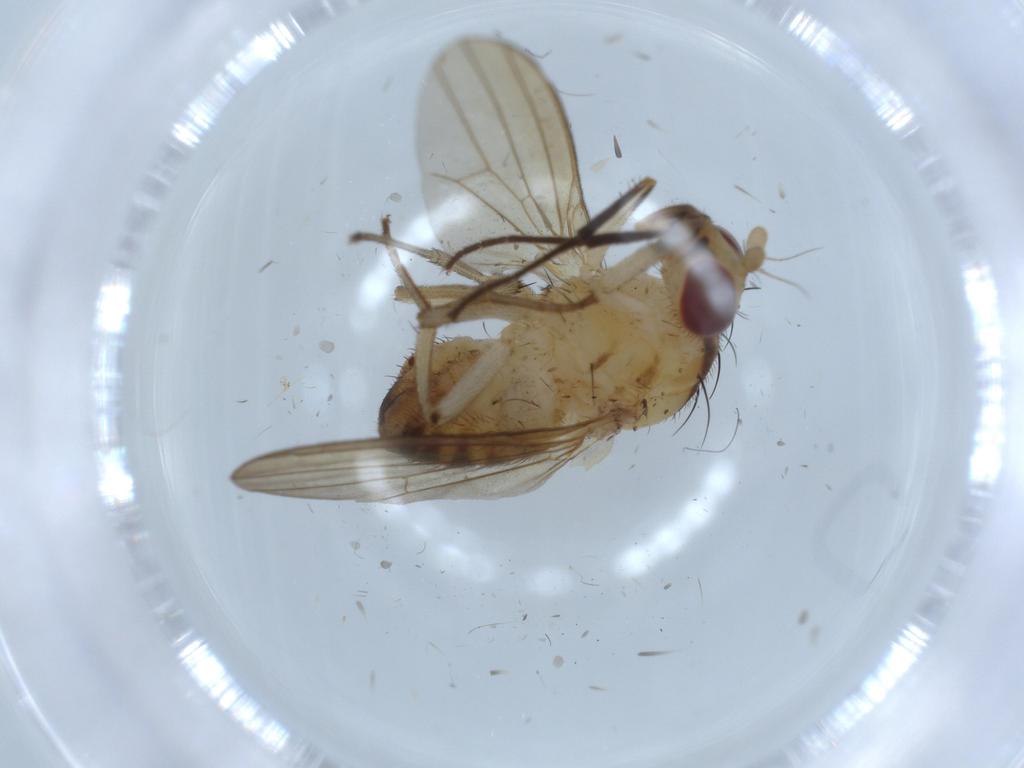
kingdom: Animalia
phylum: Arthropoda
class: Insecta
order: Diptera
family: Lauxaniidae
